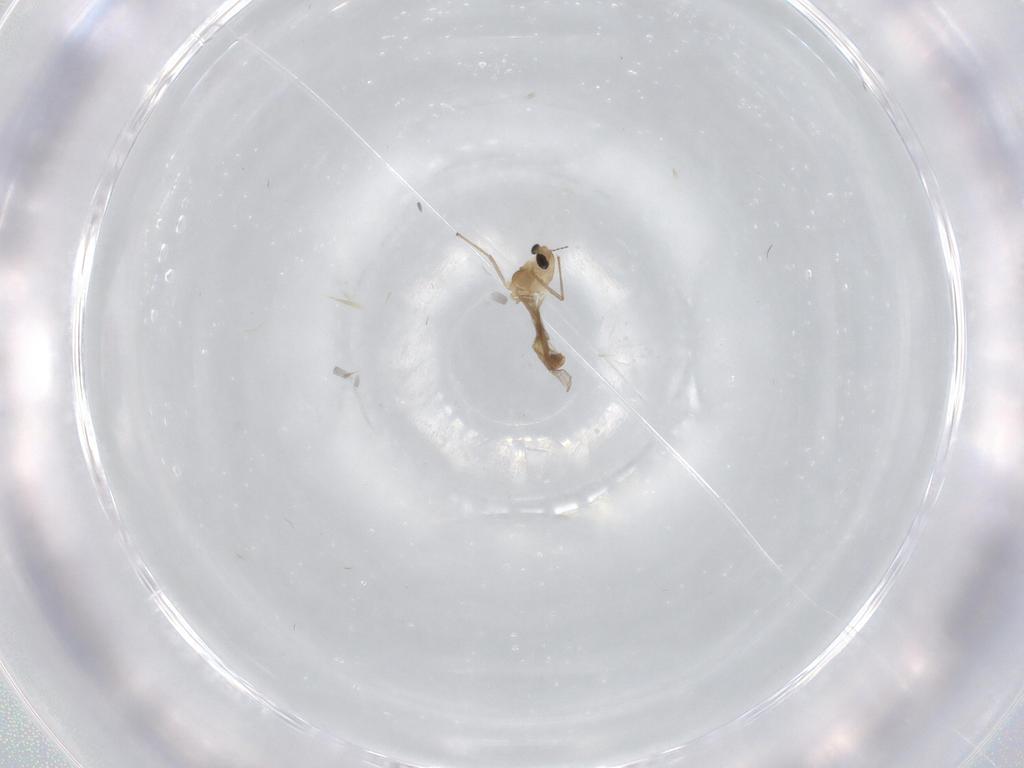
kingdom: Animalia
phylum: Arthropoda
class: Insecta
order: Diptera
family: Chironomidae
